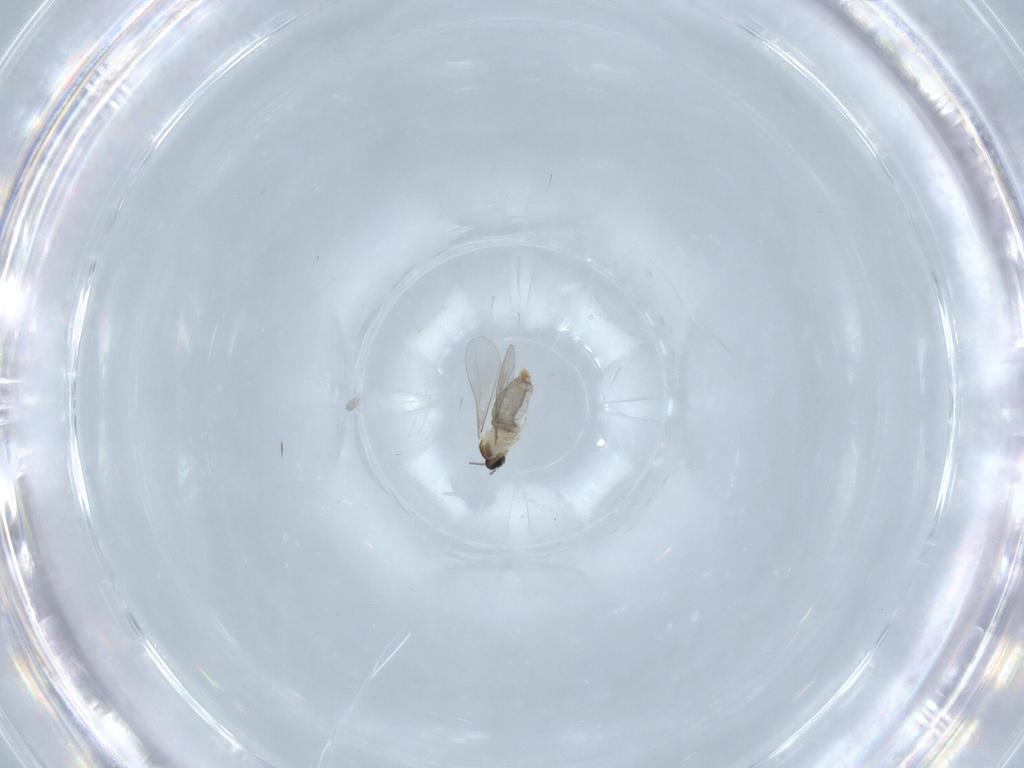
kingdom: Animalia
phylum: Arthropoda
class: Insecta
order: Diptera
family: Cecidomyiidae
